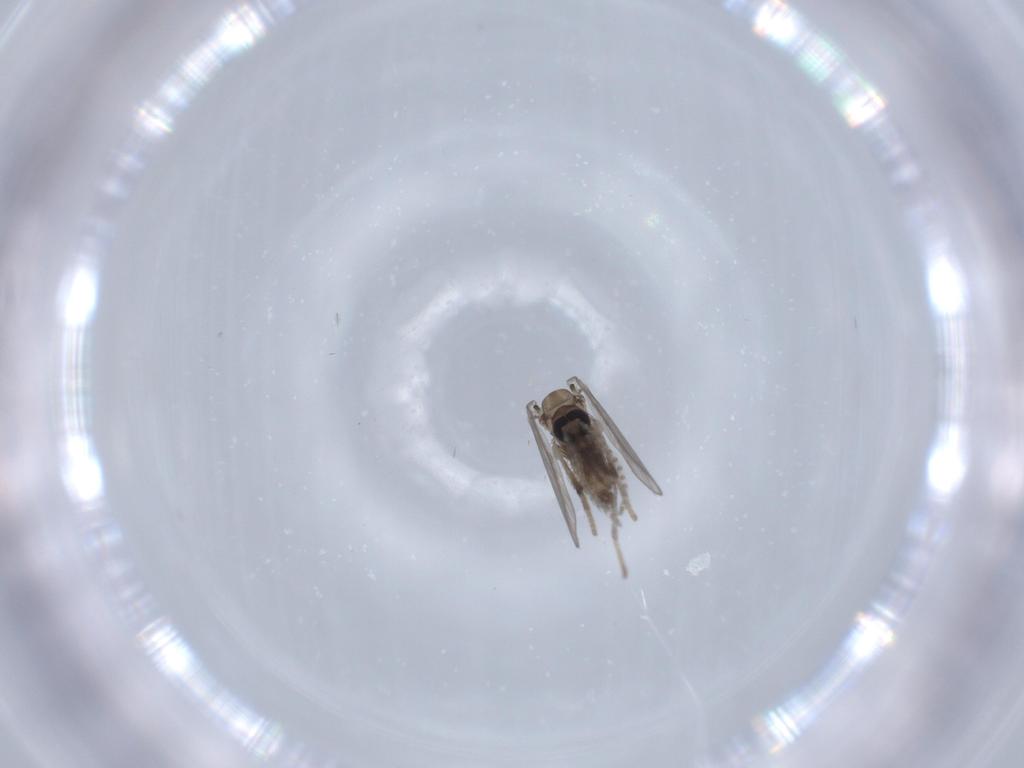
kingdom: Animalia
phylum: Arthropoda
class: Insecta
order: Diptera
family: Psychodidae
